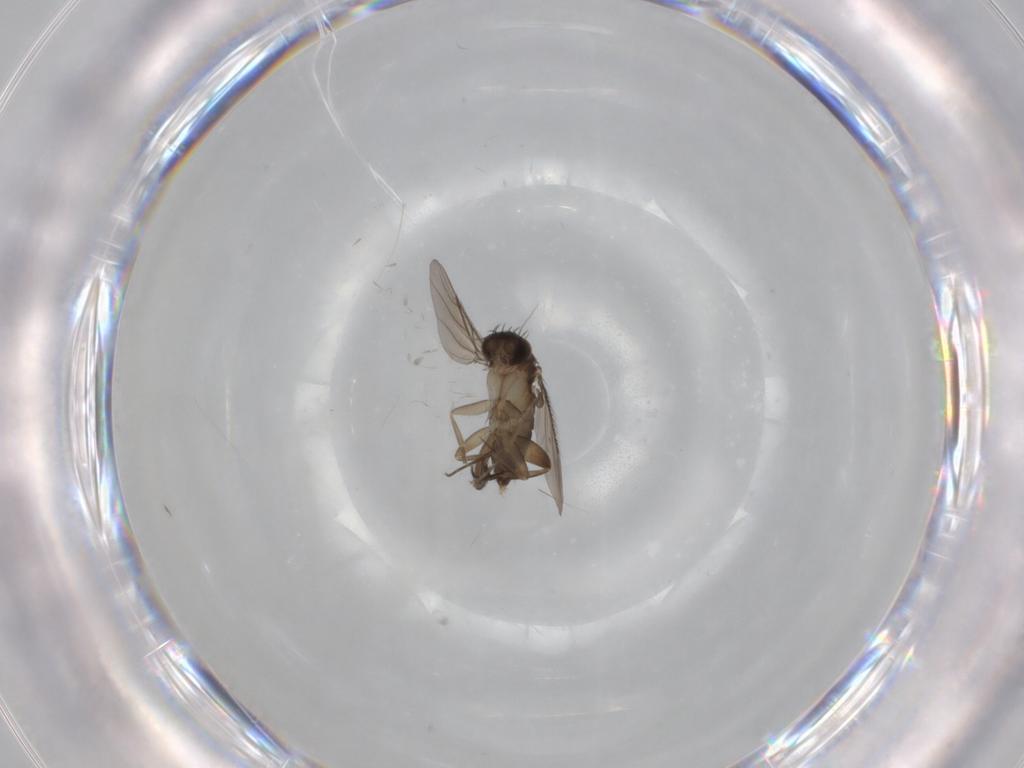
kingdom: Animalia
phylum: Arthropoda
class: Insecta
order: Diptera
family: Phoridae
